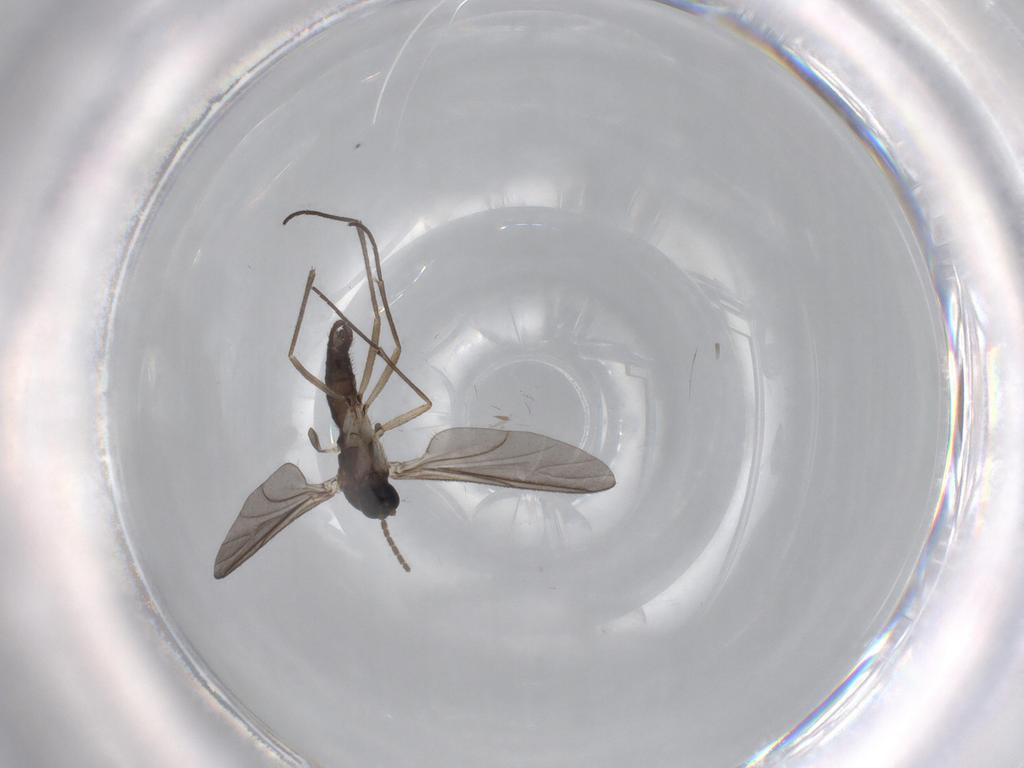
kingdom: Animalia
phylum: Arthropoda
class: Insecta
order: Diptera
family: Sciaridae
